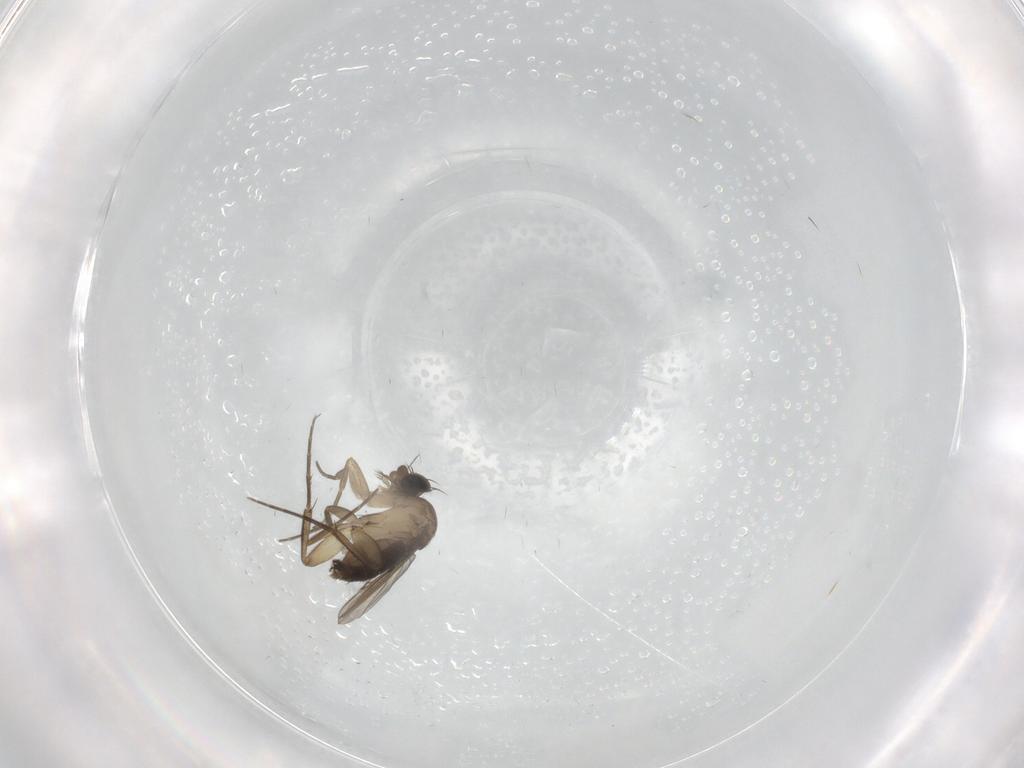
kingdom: Animalia
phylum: Arthropoda
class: Insecta
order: Diptera
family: Phoridae
